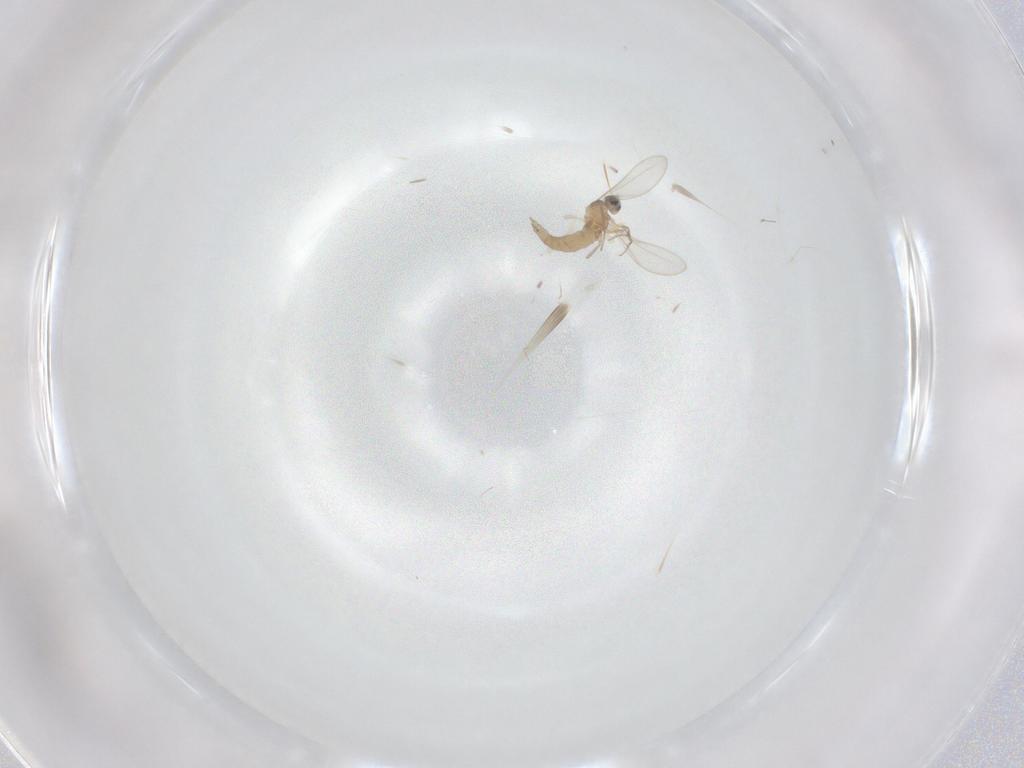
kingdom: Animalia
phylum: Arthropoda
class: Insecta
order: Diptera
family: Cecidomyiidae
